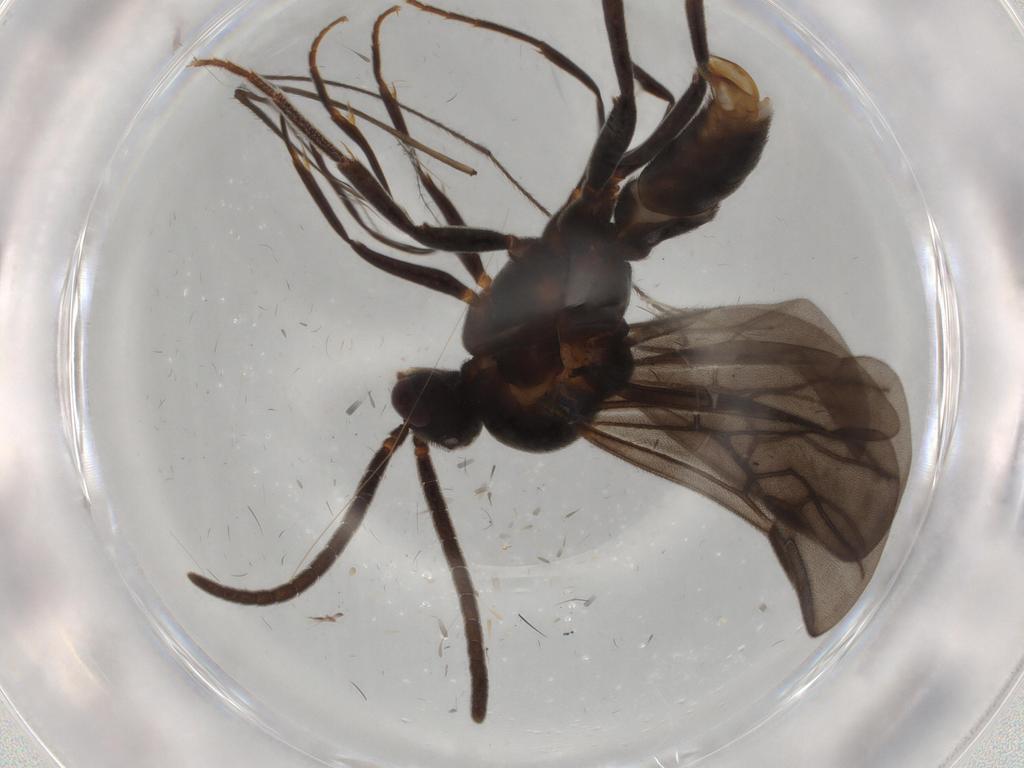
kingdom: Animalia
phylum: Arthropoda
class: Insecta
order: Hymenoptera
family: Formicidae
